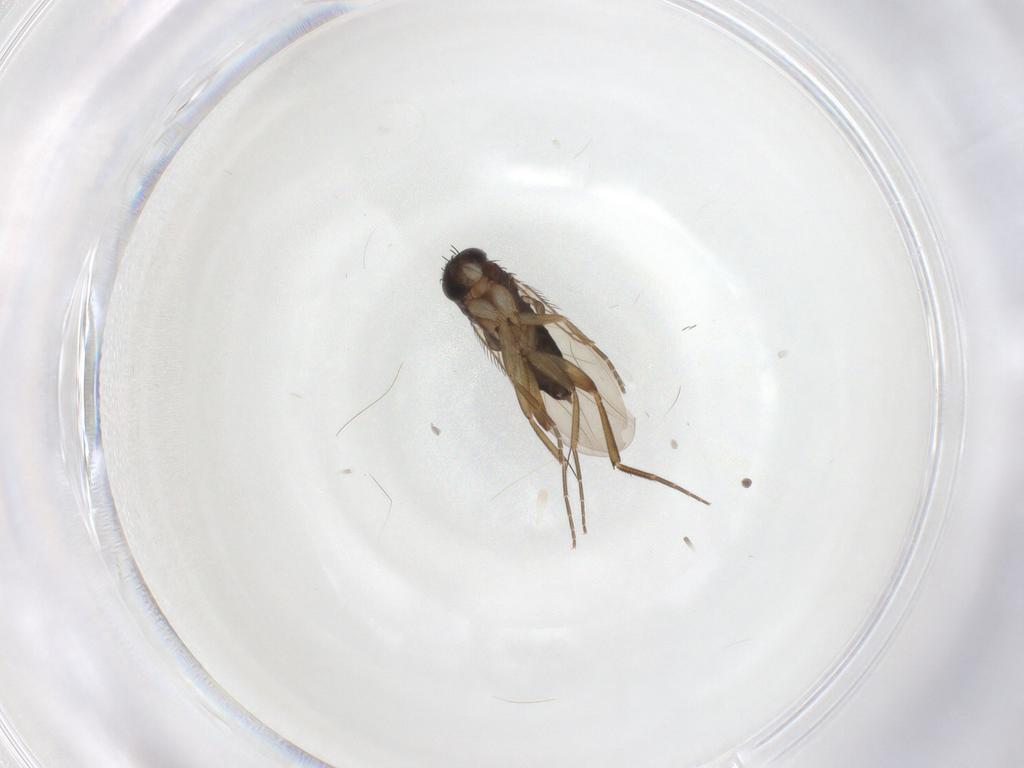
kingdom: Animalia
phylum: Arthropoda
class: Insecta
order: Diptera
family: Phoridae
